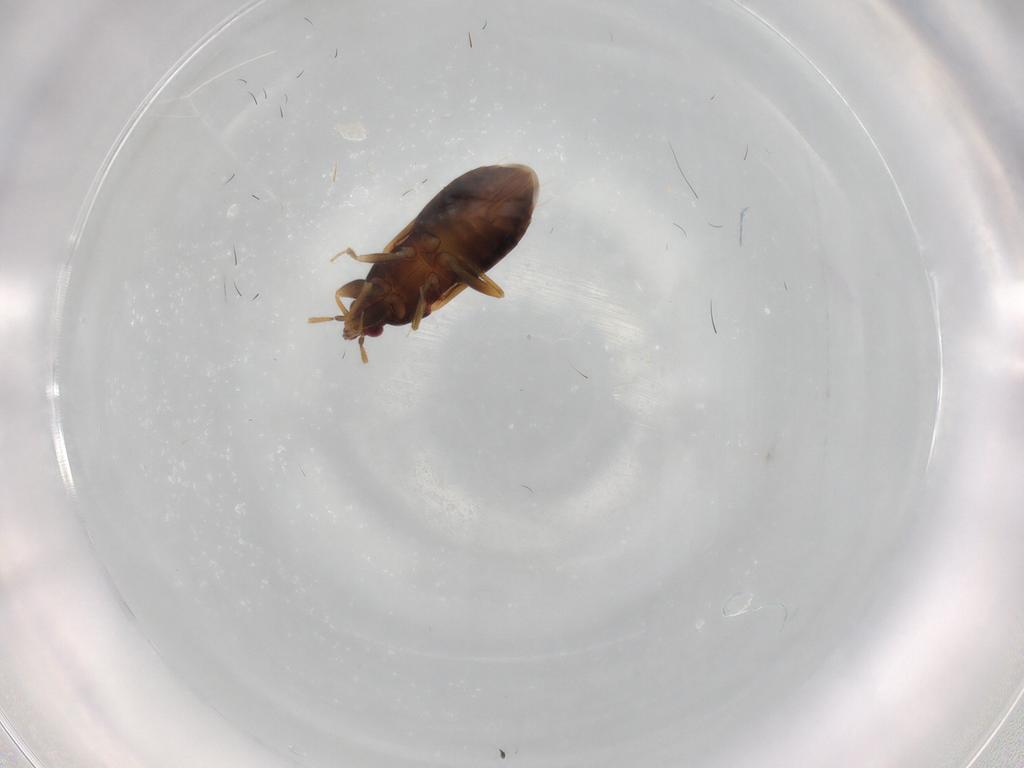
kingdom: Animalia
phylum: Arthropoda
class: Insecta
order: Hemiptera
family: Anthocoridae
